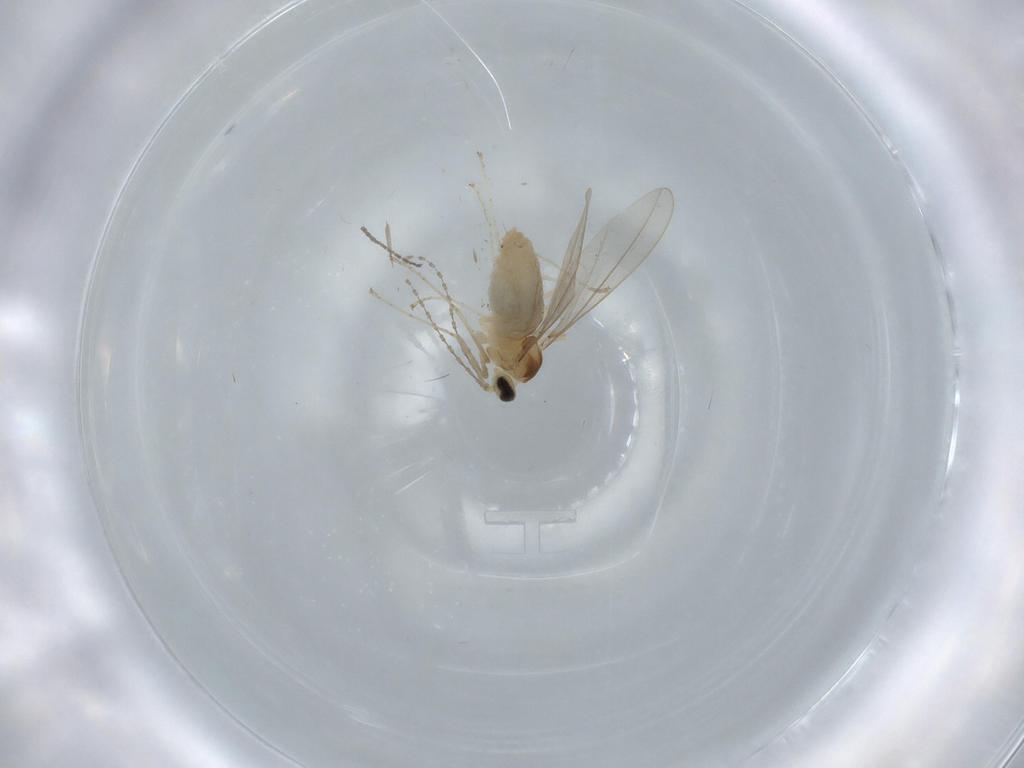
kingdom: Animalia
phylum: Arthropoda
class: Insecta
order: Diptera
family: Cecidomyiidae
